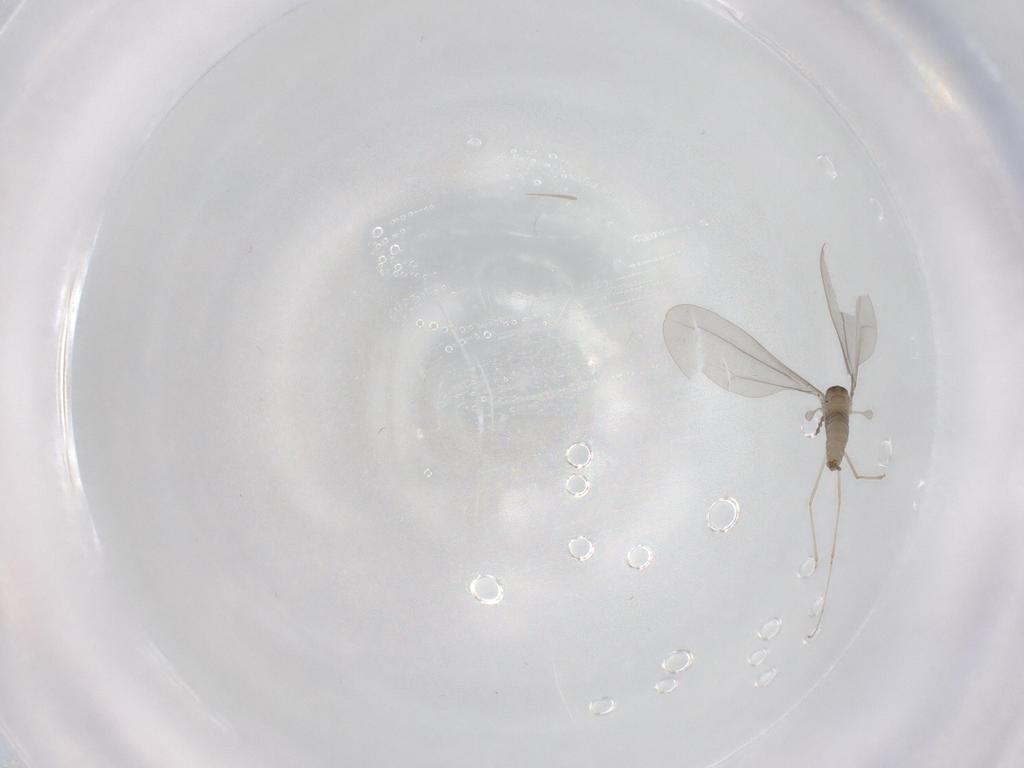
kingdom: Animalia
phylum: Arthropoda
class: Insecta
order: Diptera
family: Cecidomyiidae
